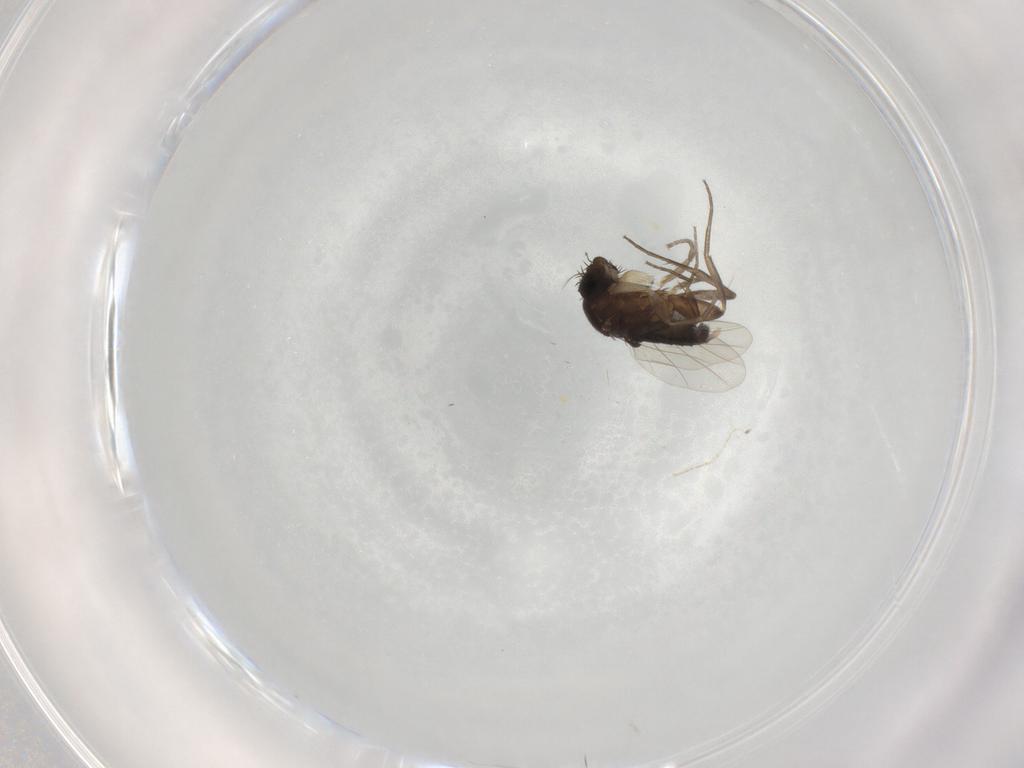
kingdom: Animalia
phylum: Arthropoda
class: Insecta
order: Diptera
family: Phoridae
